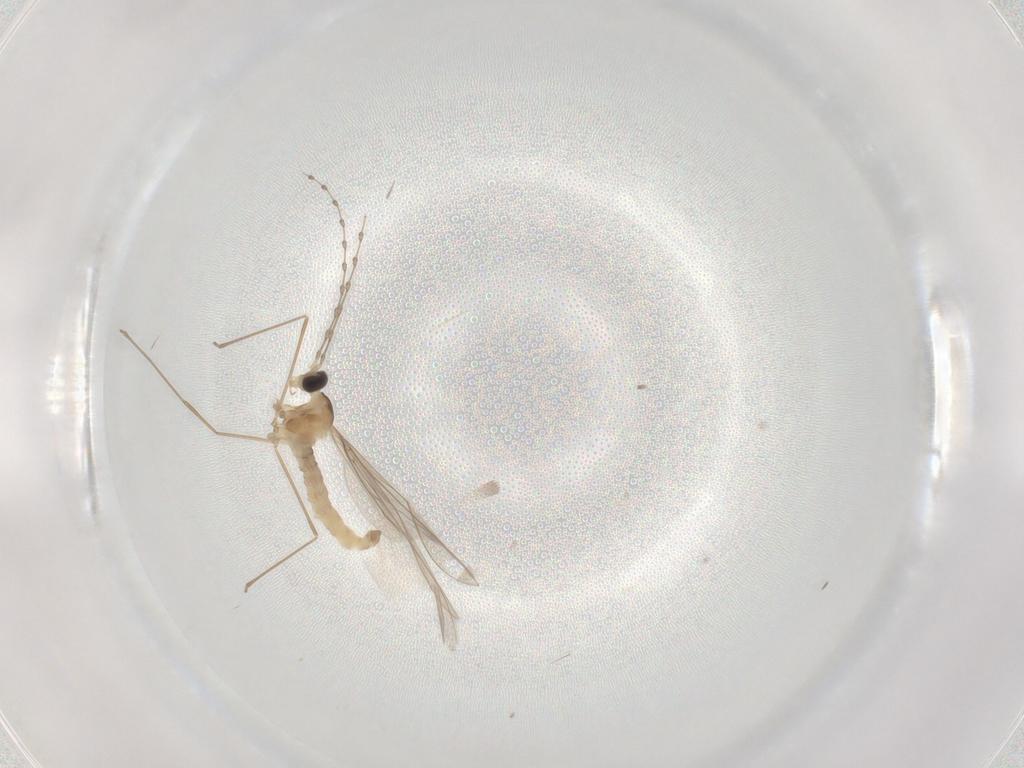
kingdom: Animalia
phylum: Arthropoda
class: Insecta
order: Diptera
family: Cecidomyiidae
